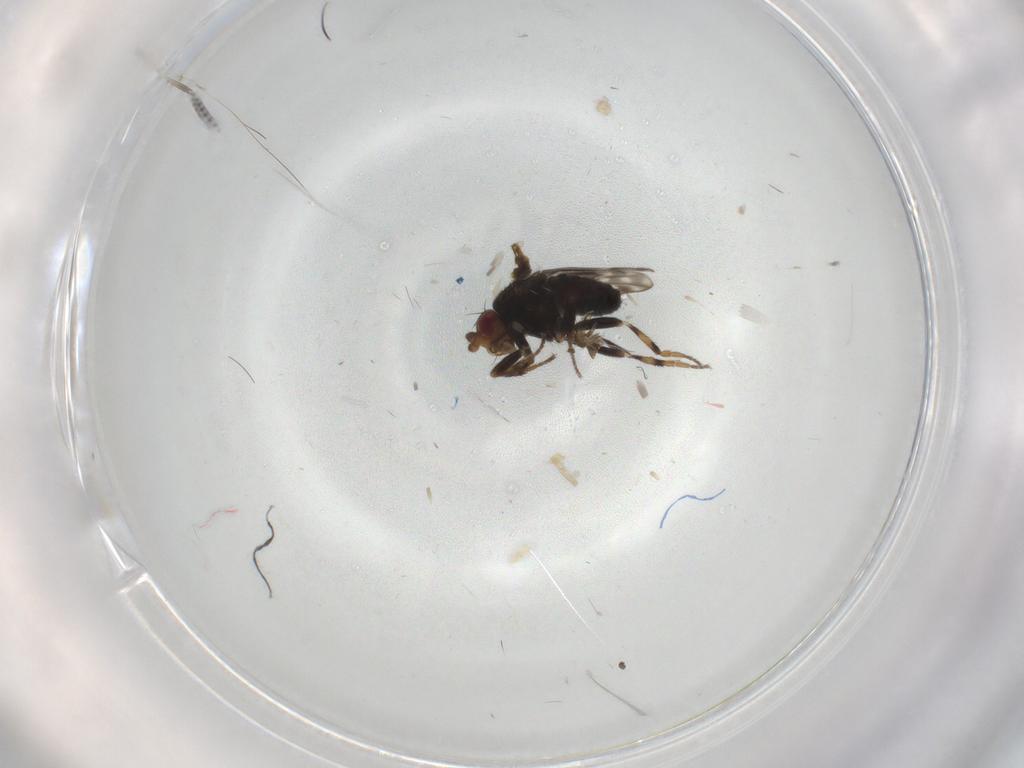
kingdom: Animalia
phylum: Arthropoda
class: Insecta
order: Diptera
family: Sphaeroceridae
